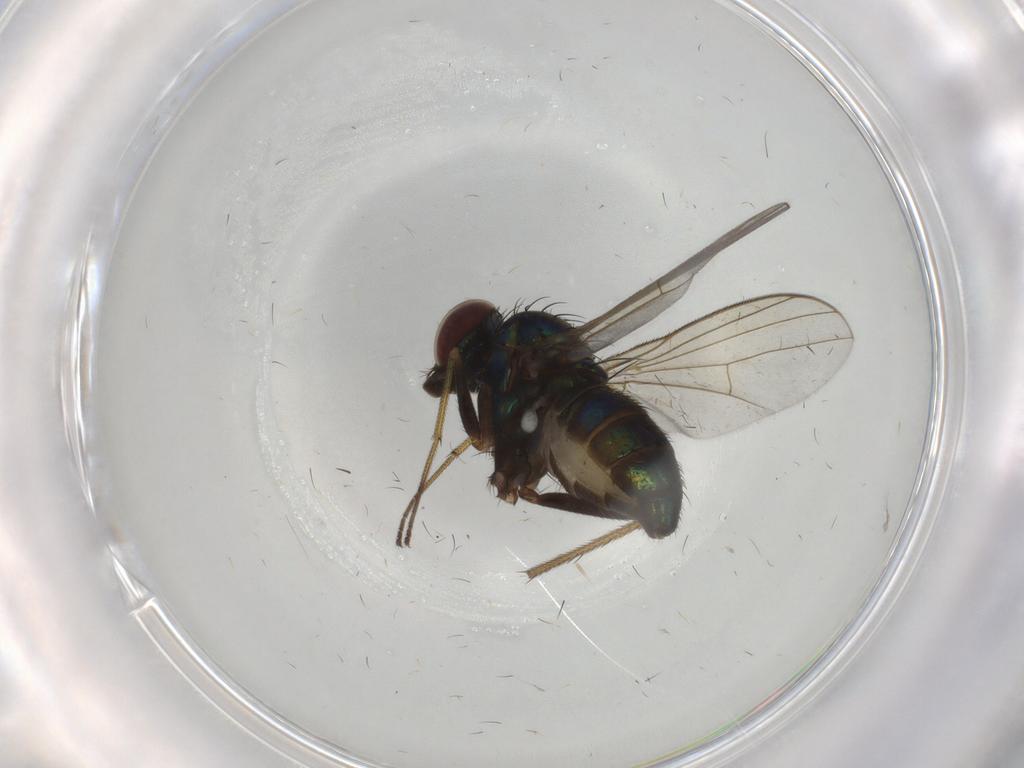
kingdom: Animalia
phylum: Arthropoda
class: Insecta
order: Diptera
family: Dolichopodidae
